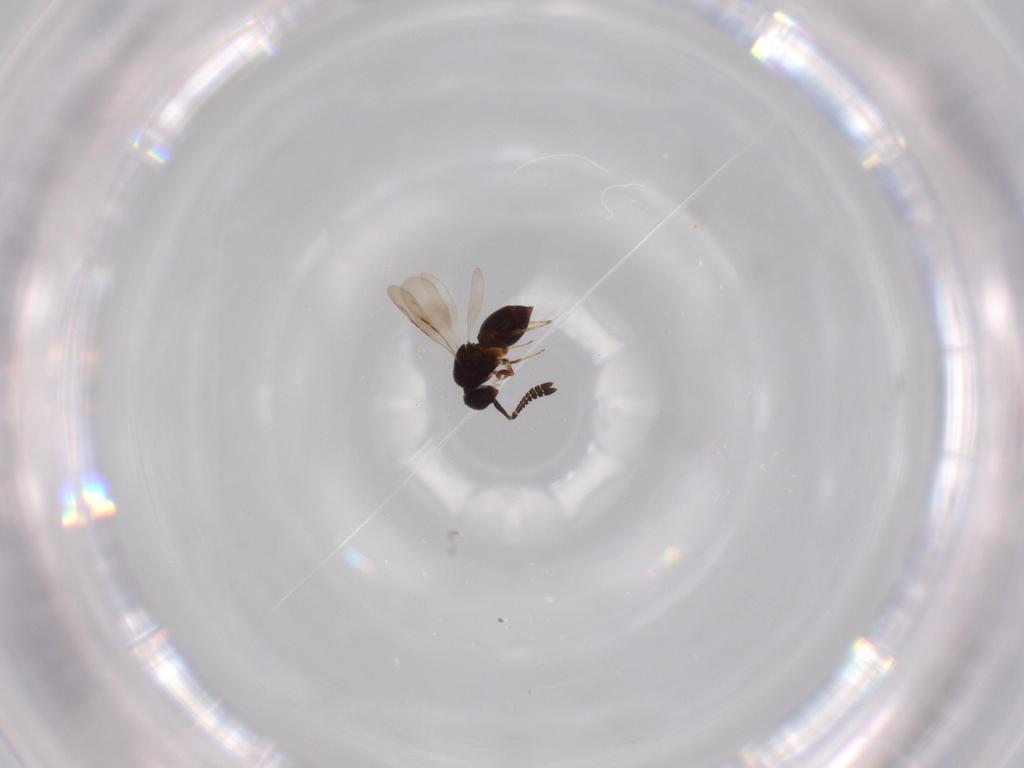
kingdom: Animalia
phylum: Arthropoda
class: Insecta
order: Hymenoptera
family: Ceraphronidae
